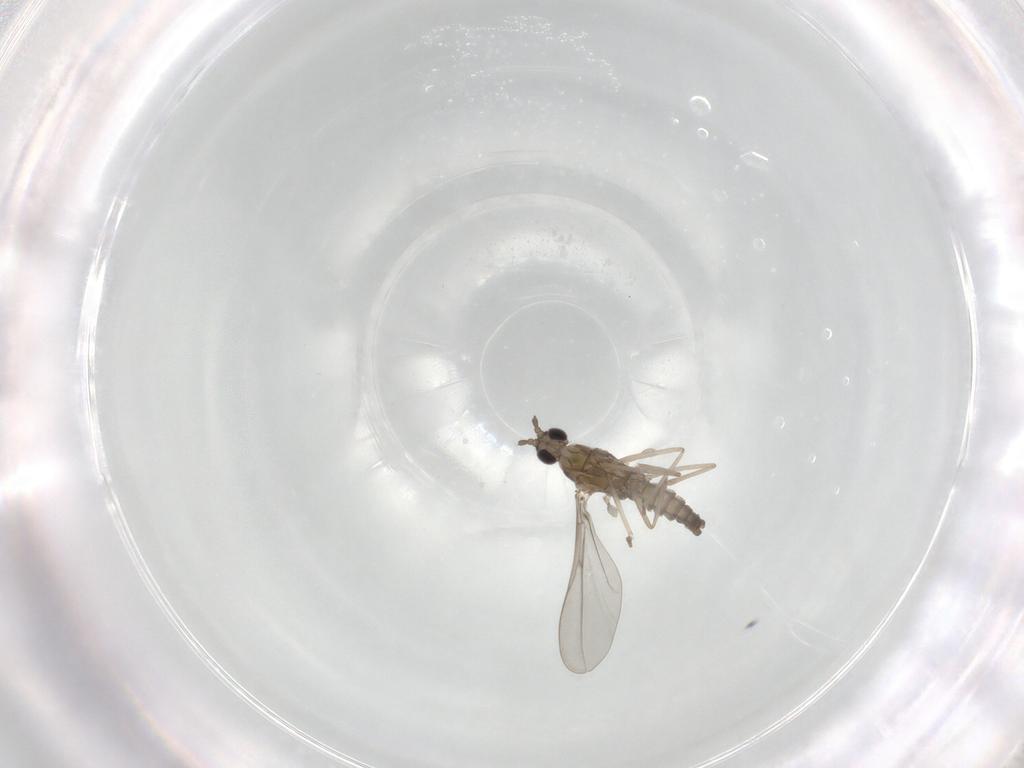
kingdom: Animalia
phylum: Arthropoda
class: Insecta
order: Diptera
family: Cecidomyiidae
